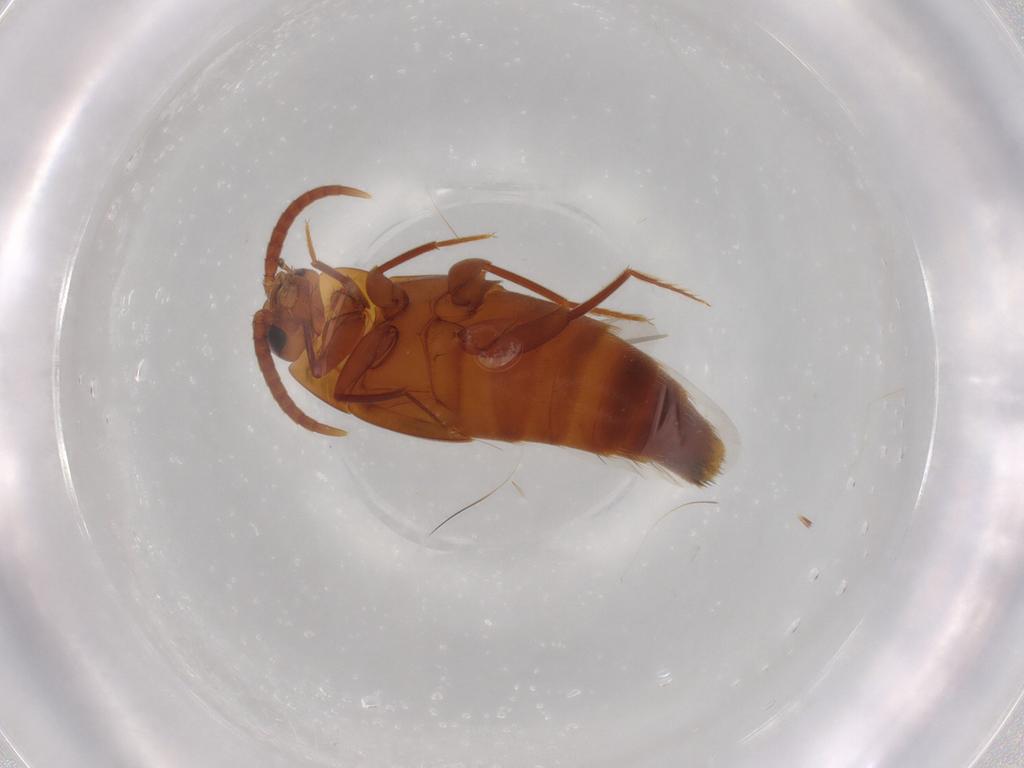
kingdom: Animalia
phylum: Arthropoda
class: Insecta
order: Coleoptera
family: Staphylinidae
